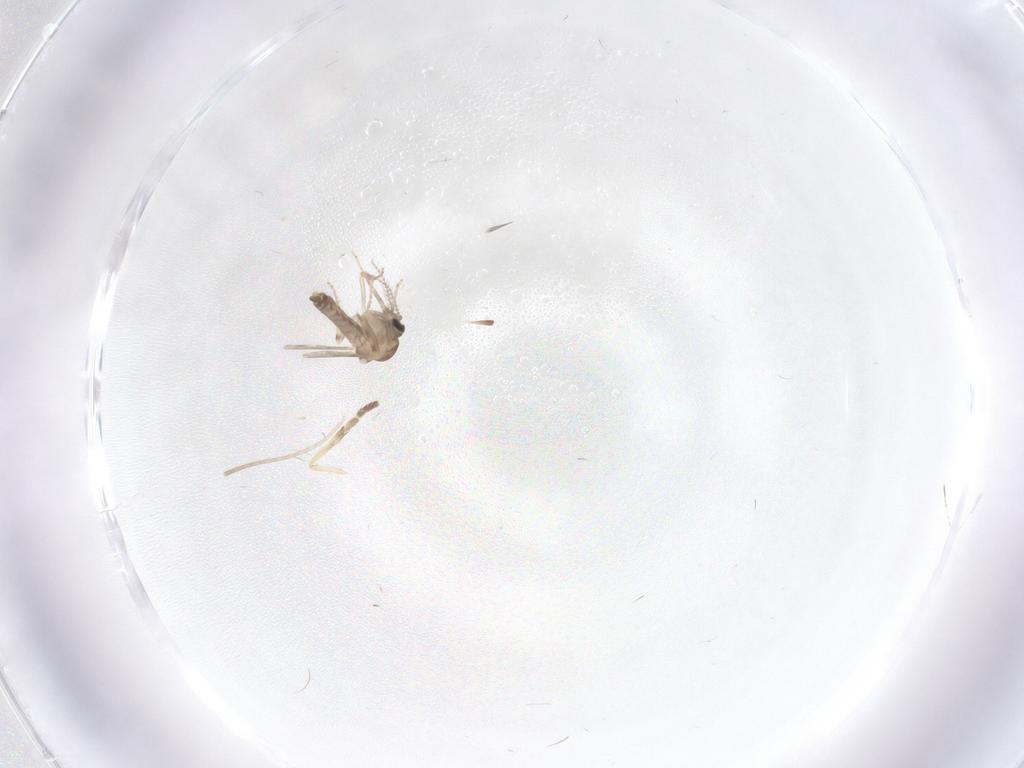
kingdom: Animalia
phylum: Arthropoda
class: Insecta
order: Diptera
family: Ceratopogonidae
